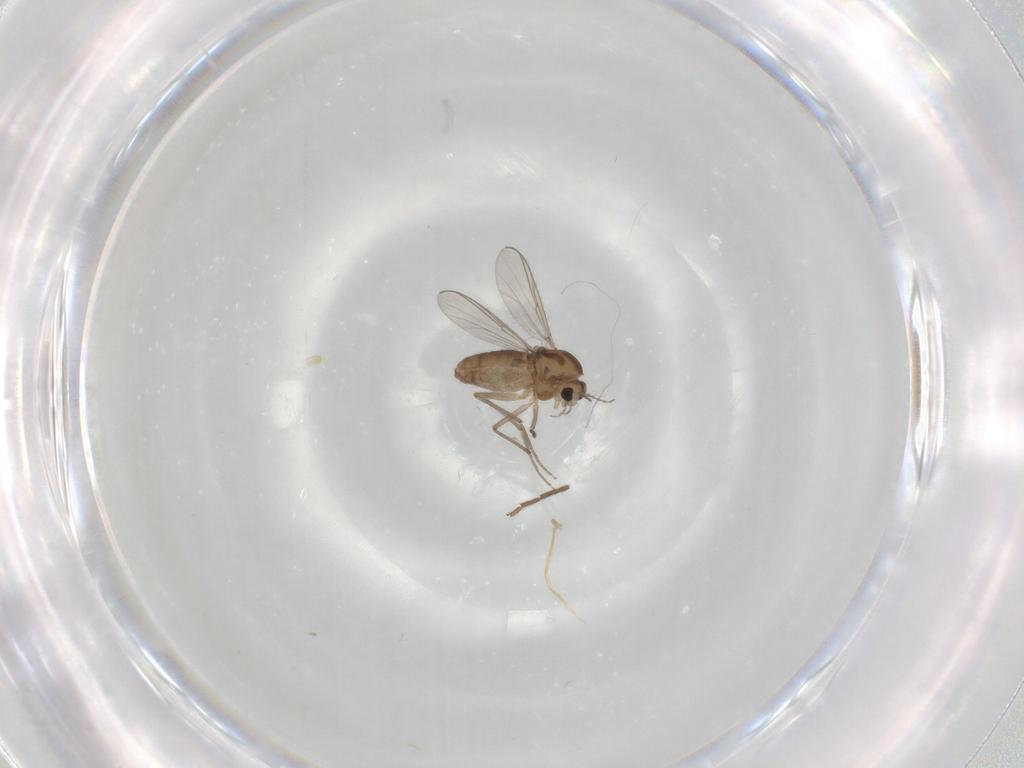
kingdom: Animalia
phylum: Arthropoda
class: Insecta
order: Diptera
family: Chironomidae
